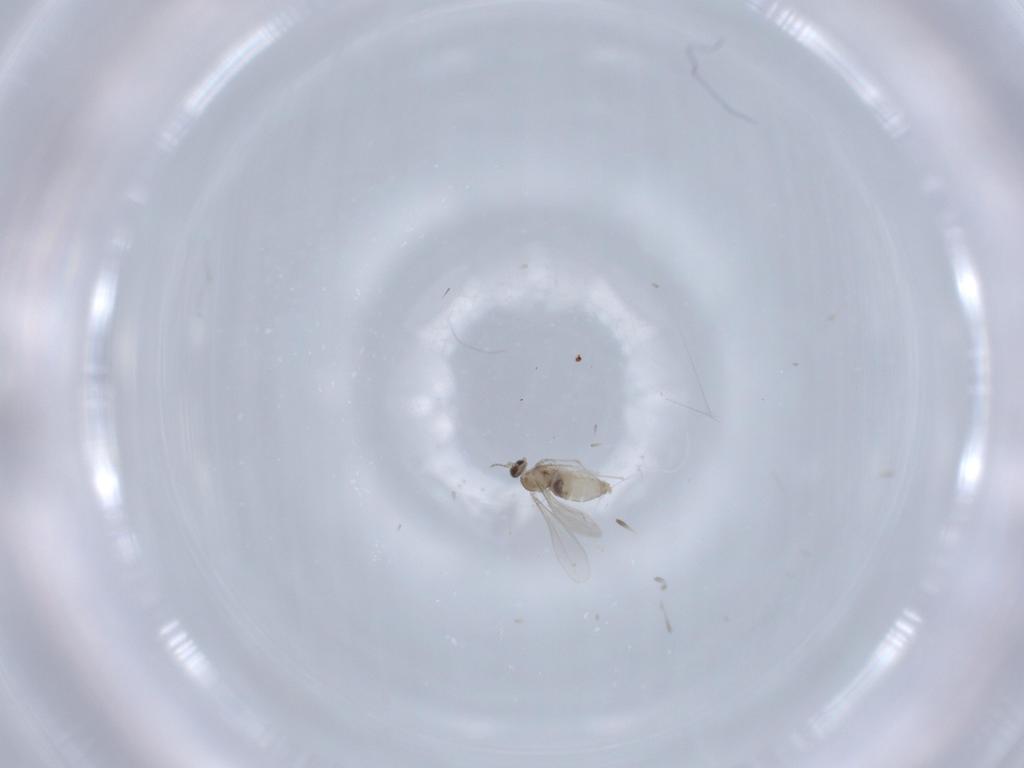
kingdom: Animalia
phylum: Arthropoda
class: Insecta
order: Diptera
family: Cecidomyiidae
